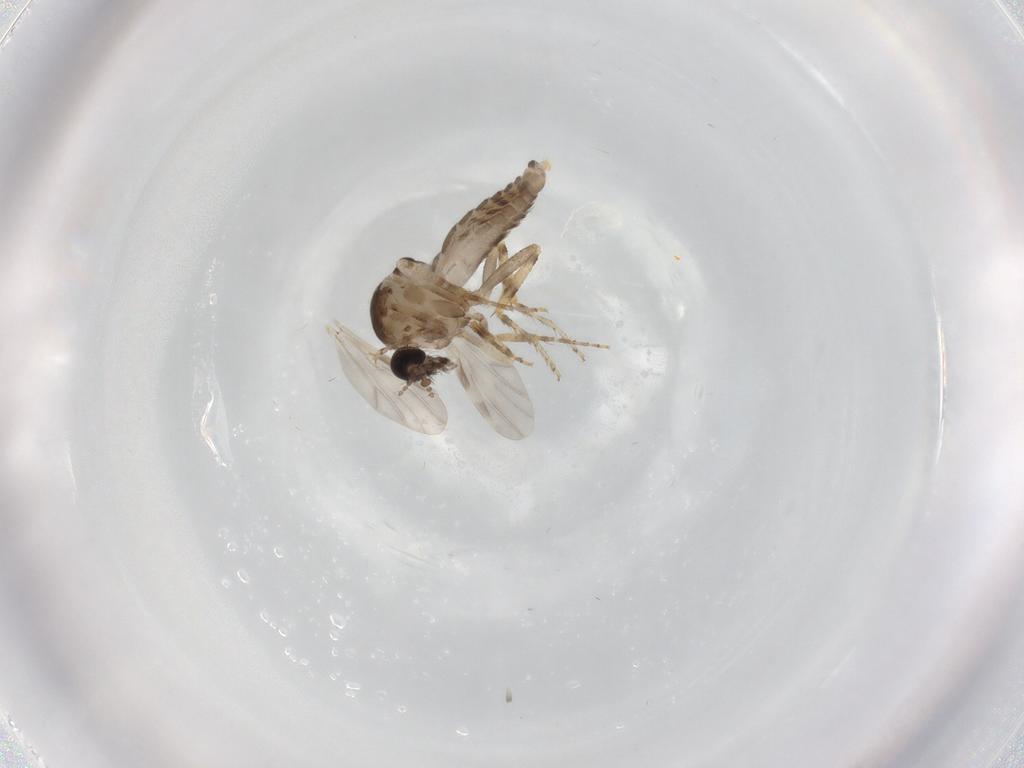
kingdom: Animalia
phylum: Arthropoda
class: Insecta
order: Diptera
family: Ceratopogonidae
